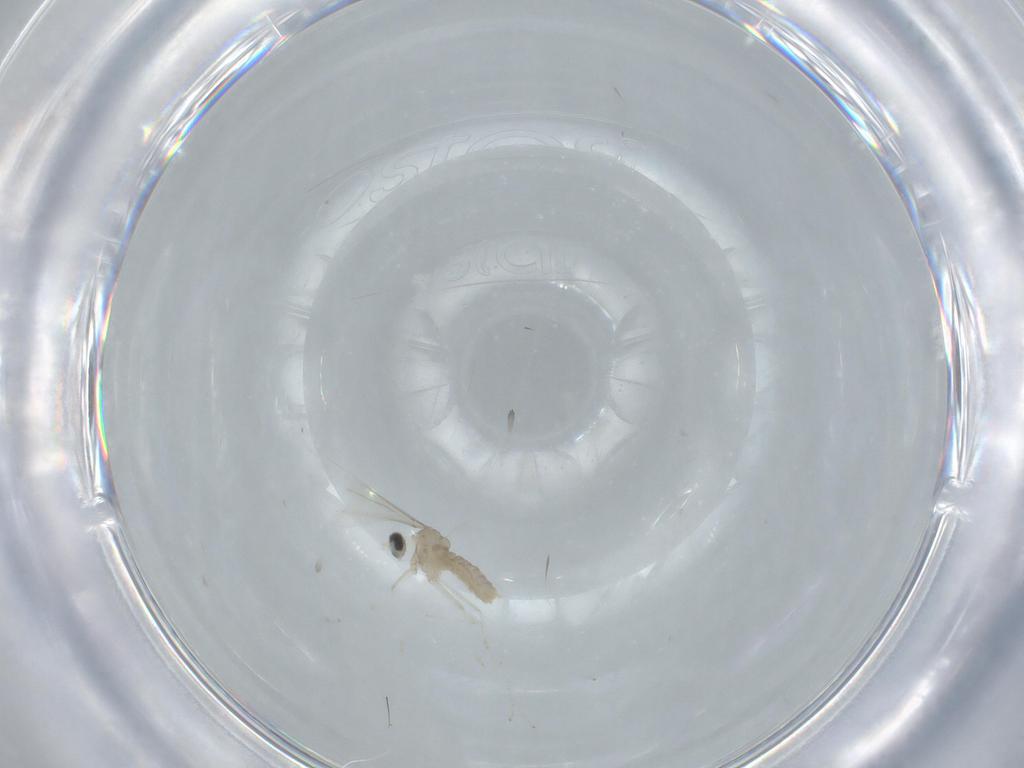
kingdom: Animalia
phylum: Arthropoda
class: Insecta
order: Diptera
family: Cecidomyiidae
